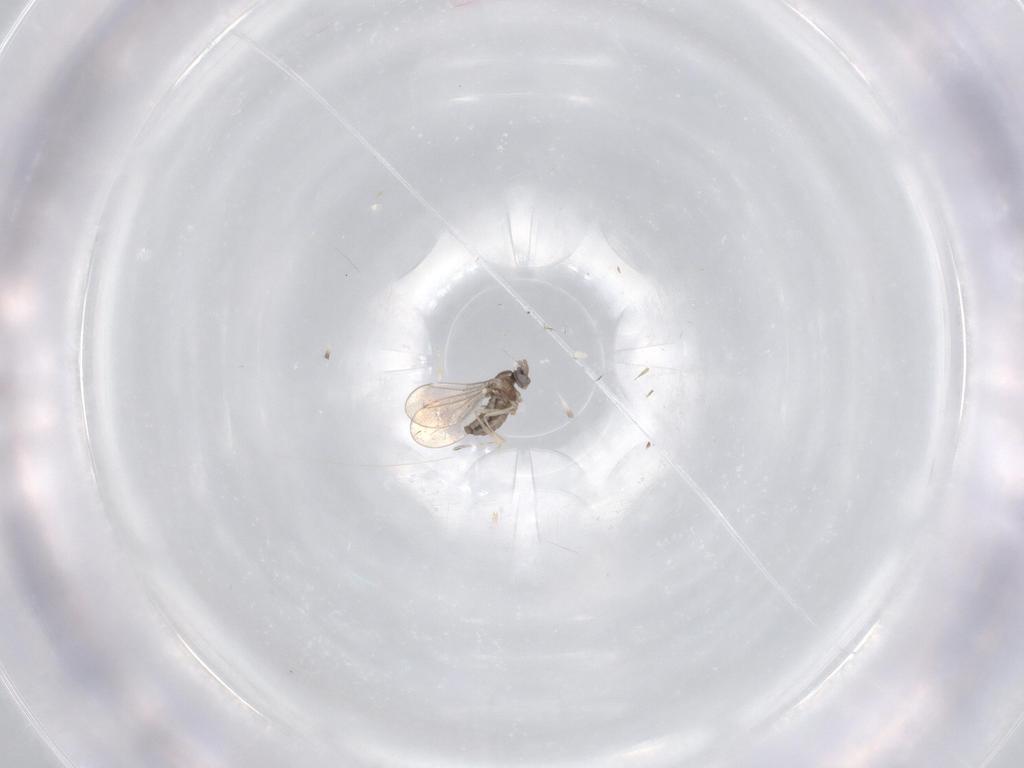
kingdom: Animalia
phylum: Arthropoda
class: Insecta
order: Diptera
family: Cecidomyiidae
